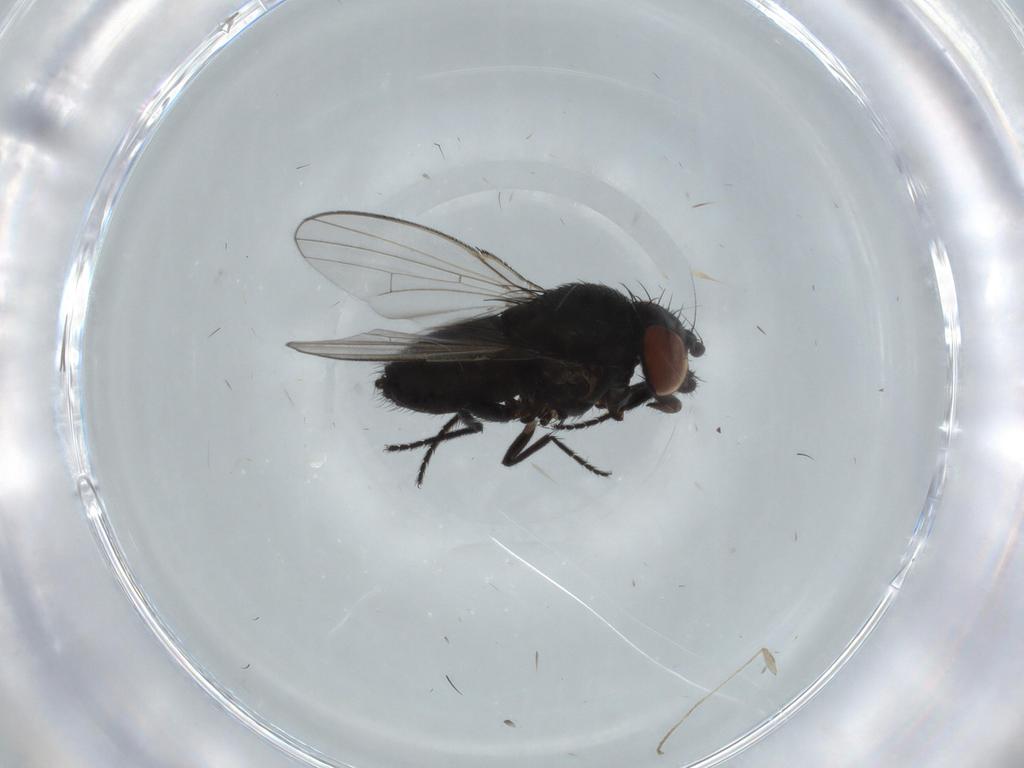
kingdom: Animalia
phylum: Arthropoda
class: Insecta
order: Diptera
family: Milichiidae
